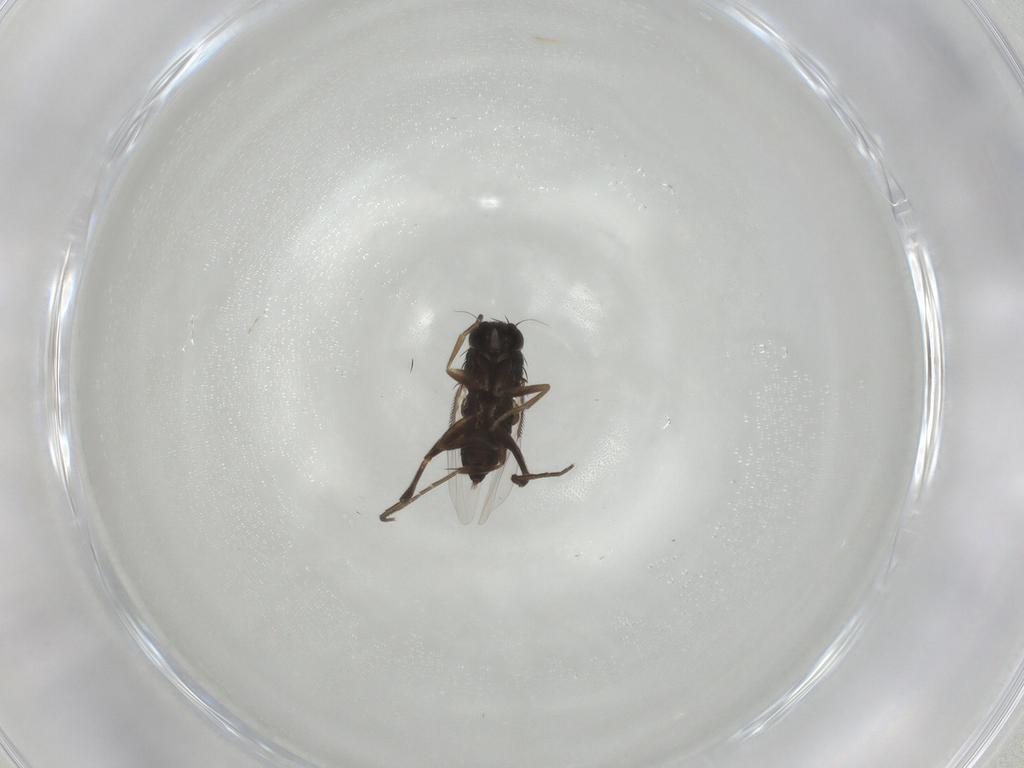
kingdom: Animalia
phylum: Arthropoda
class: Insecta
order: Diptera
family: Phoridae
